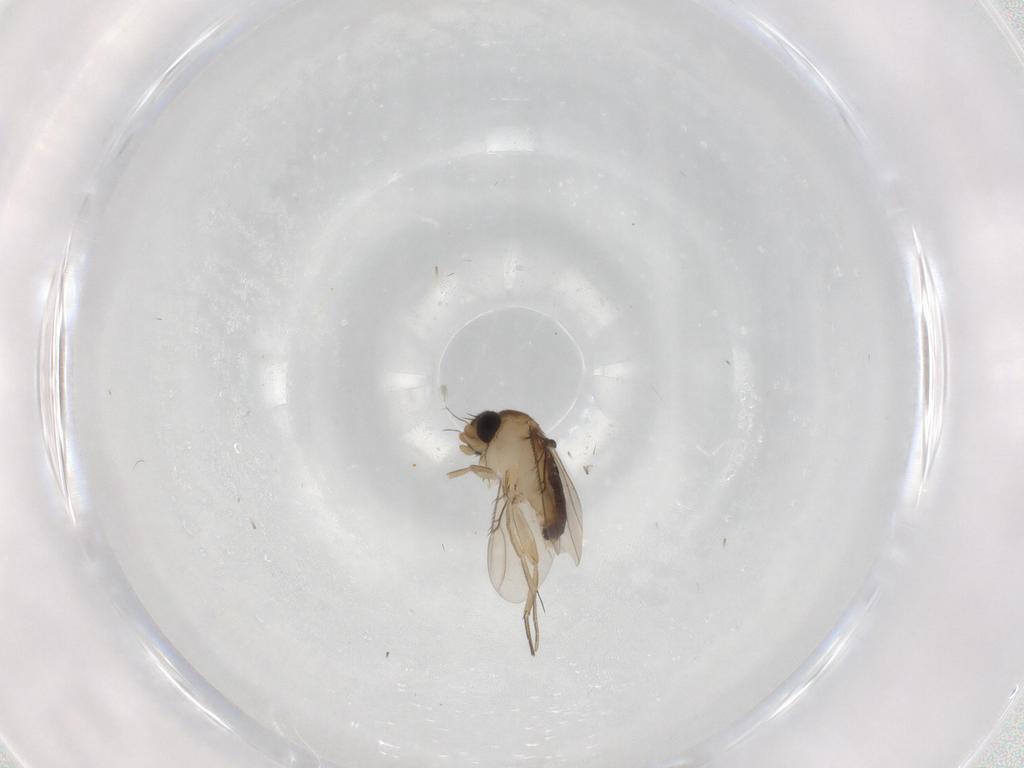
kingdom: Animalia
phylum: Arthropoda
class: Insecta
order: Diptera
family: Phoridae
